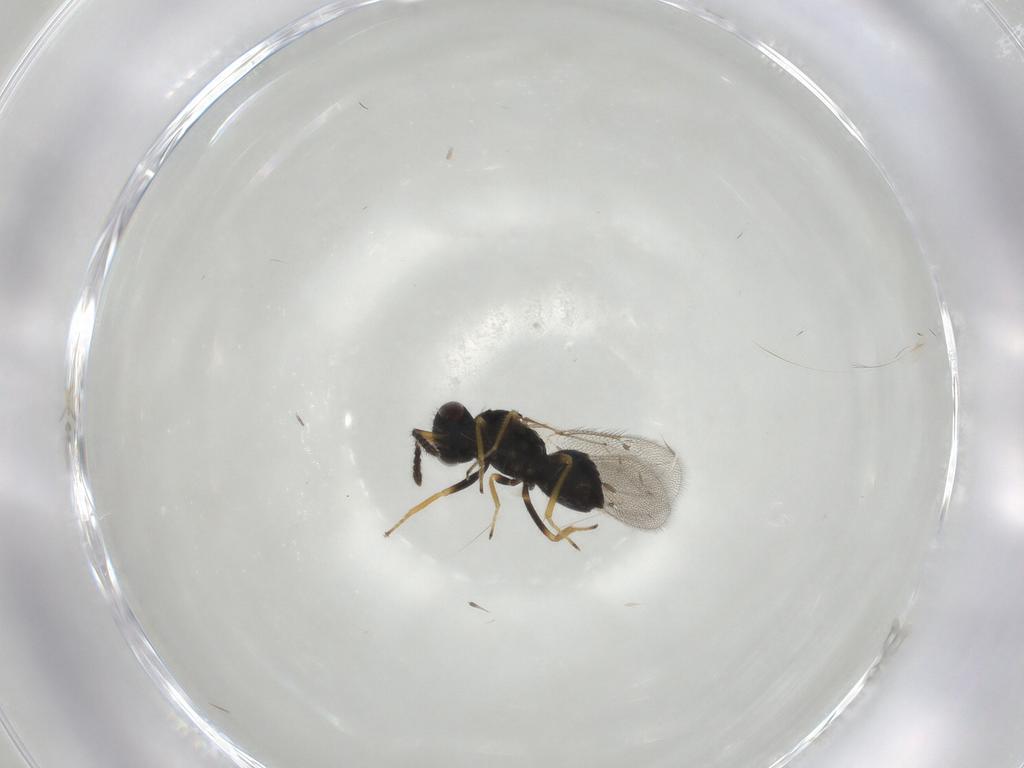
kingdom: Animalia
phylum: Arthropoda
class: Insecta
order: Hymenoptera
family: Eulophidae
